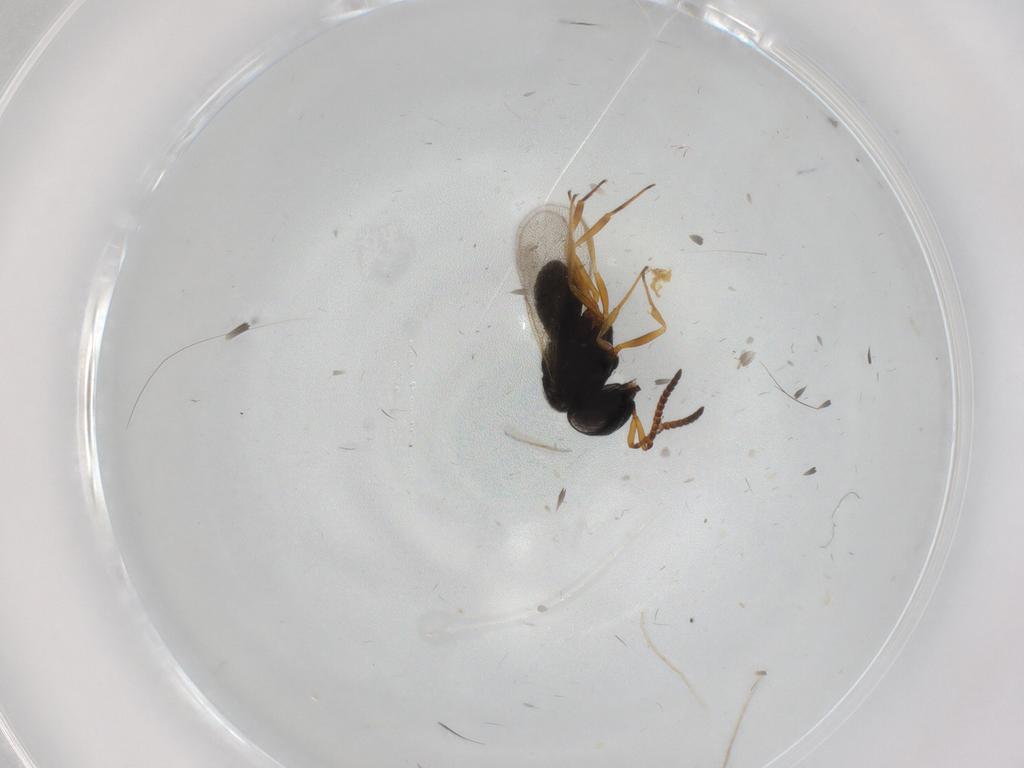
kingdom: Animalia
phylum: Arthropoda
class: Insecta
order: Hymenoptera
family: Scelionidae
